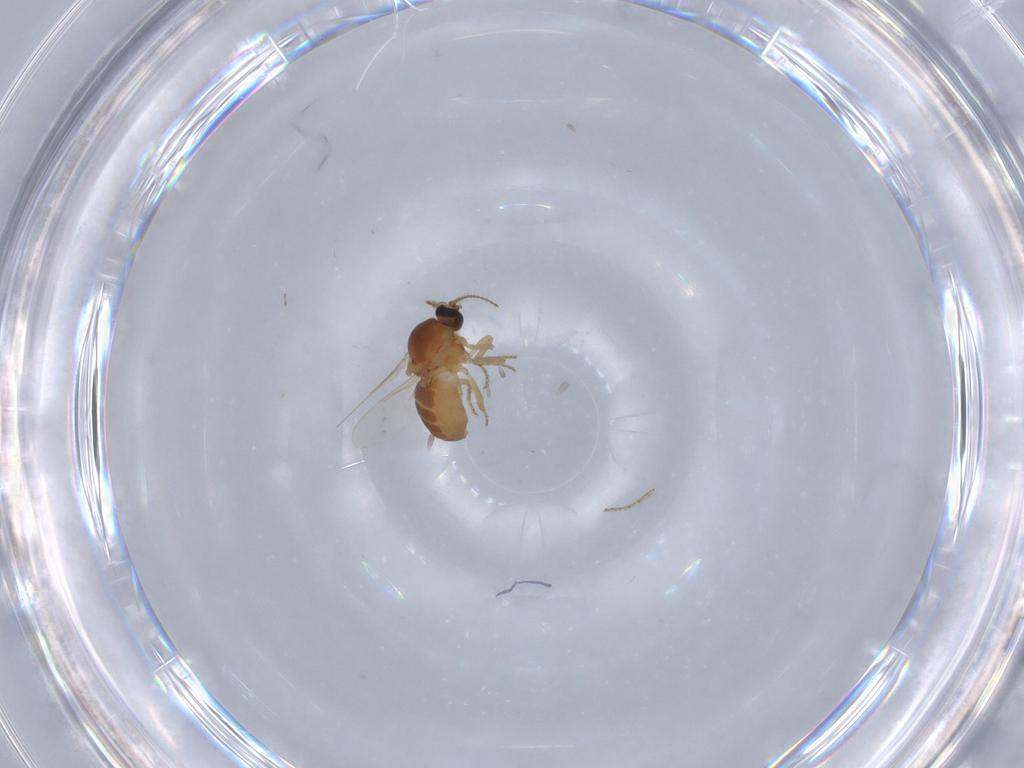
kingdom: Animalia
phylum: Arthropoda
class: Insecta
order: Diptera
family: Ceratopogonidae
